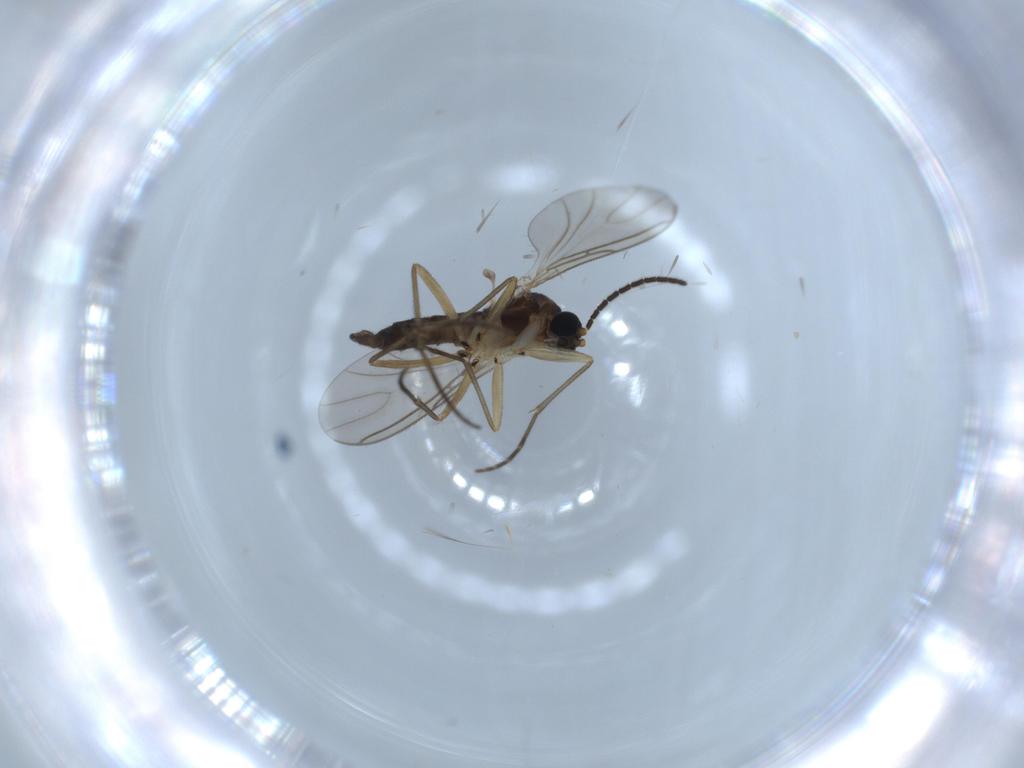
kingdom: Animalia
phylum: Arthropoda
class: Insecta
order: Diptera
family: Sciaridae
